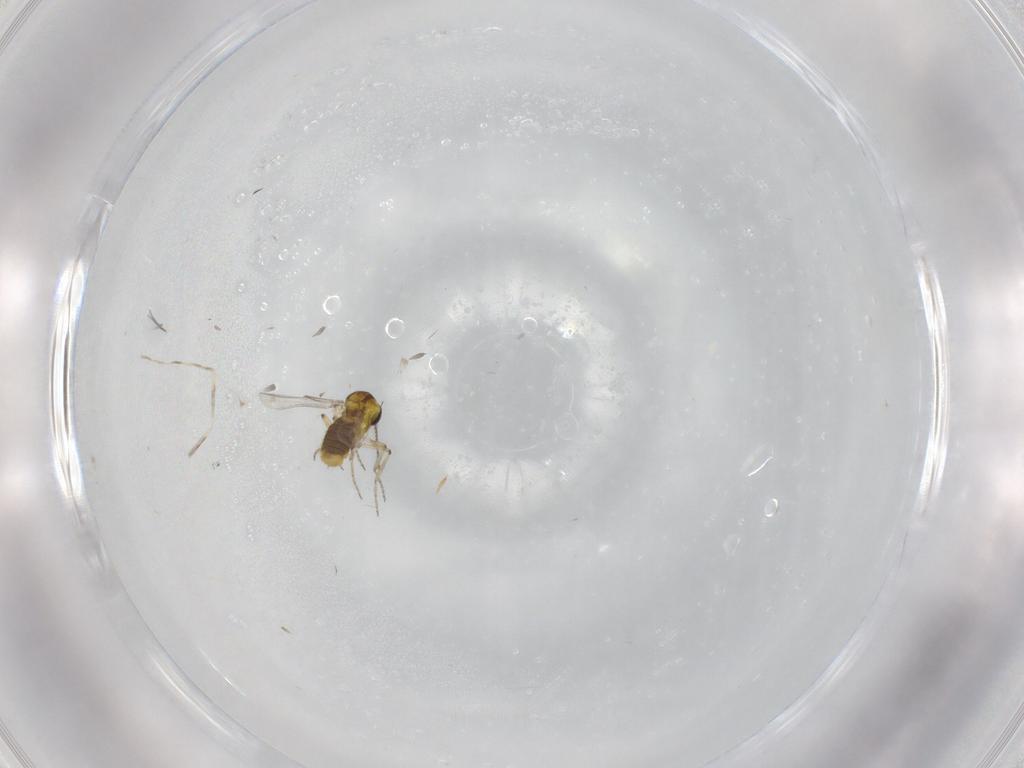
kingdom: Animalia
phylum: Arthropoda
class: Insecta
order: Diptera
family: Ceratopogonidae
